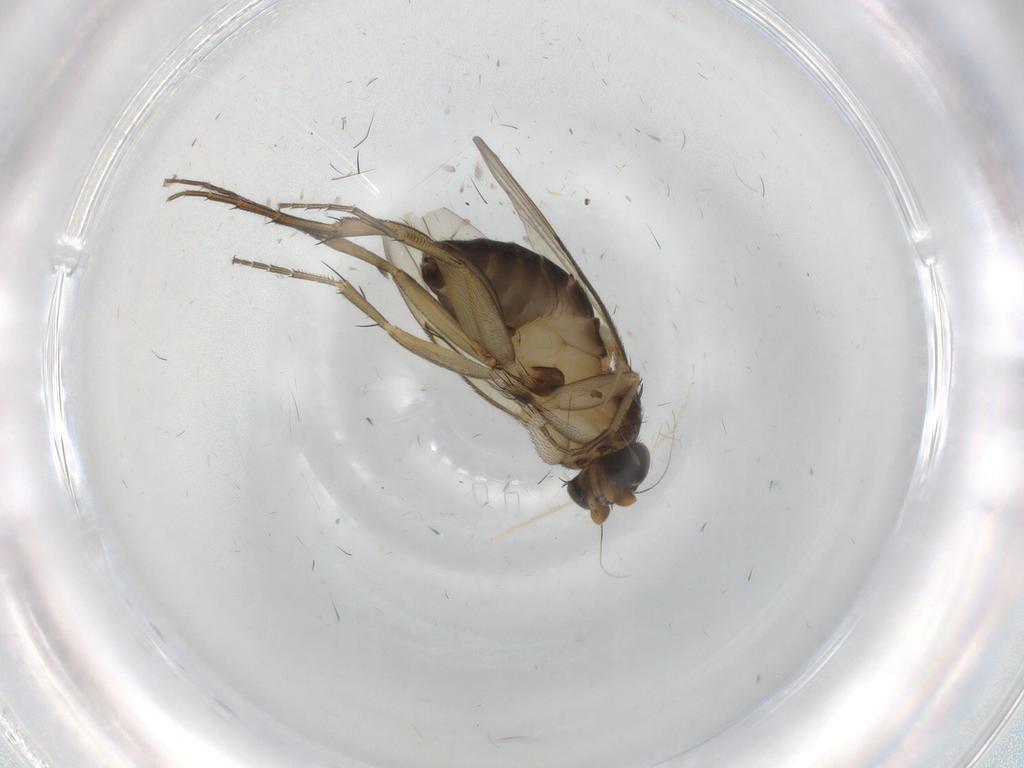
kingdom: Animalia
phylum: Arthropoda
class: Insecta
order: Diptera
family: Phoridae
